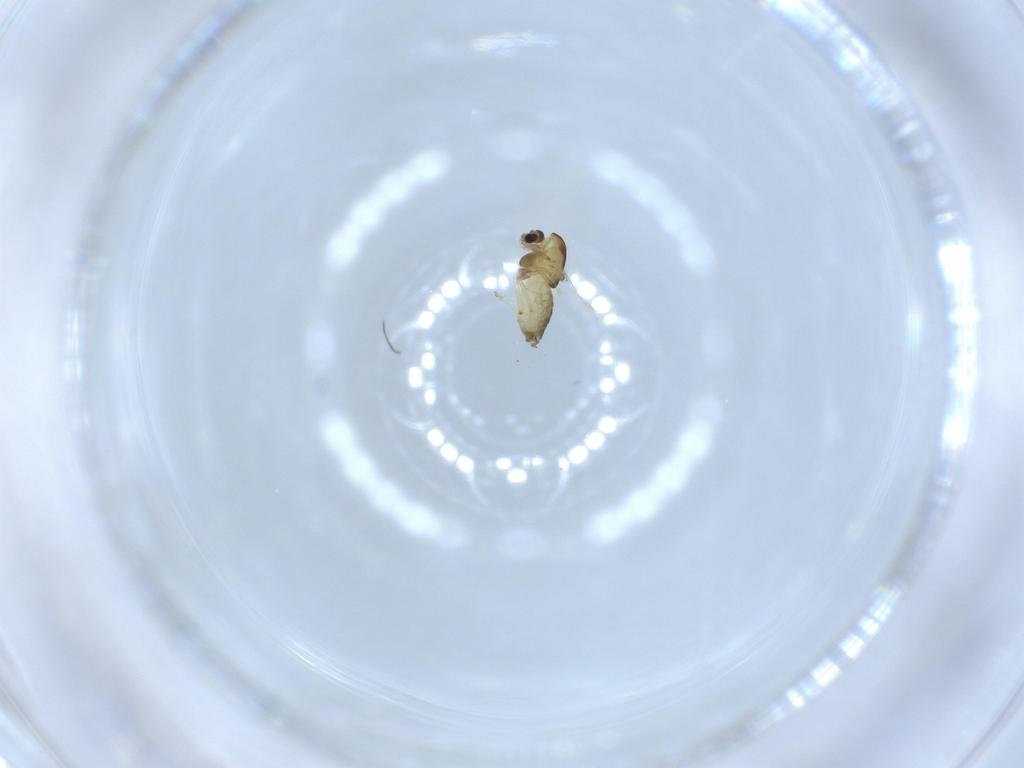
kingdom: Animalia
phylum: Arthropoda
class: Insecta
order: Diptera
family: Chironomidae
